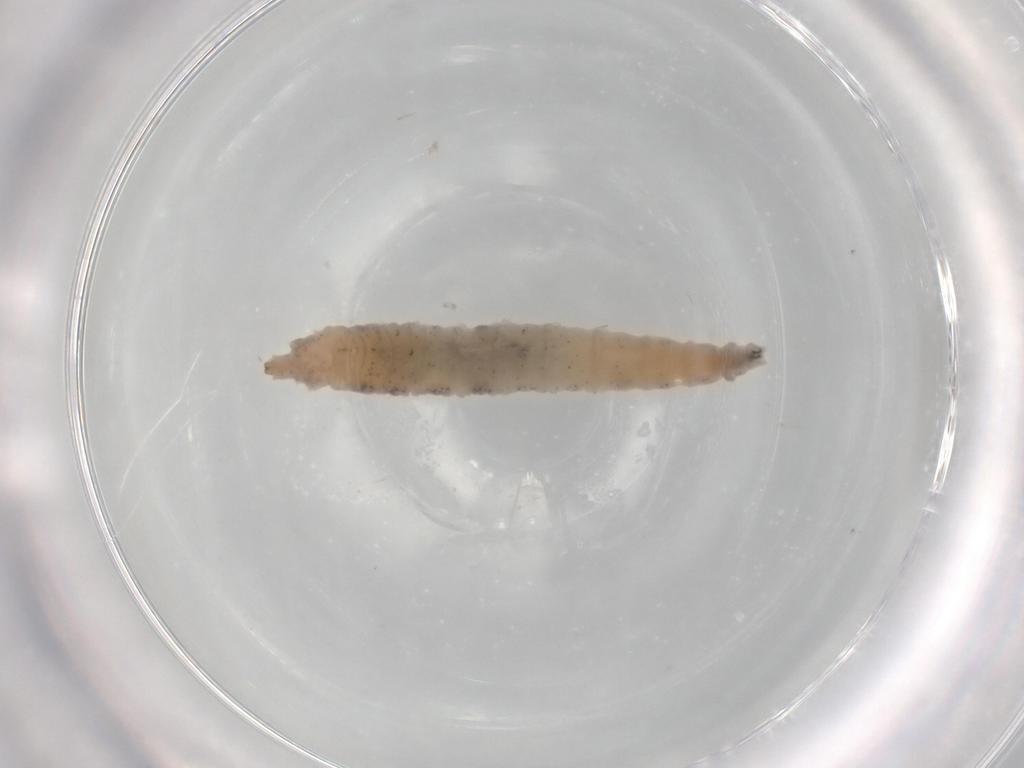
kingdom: Animalia
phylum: Arthropoda
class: Insecta
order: Diptera
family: Drosophilidae
